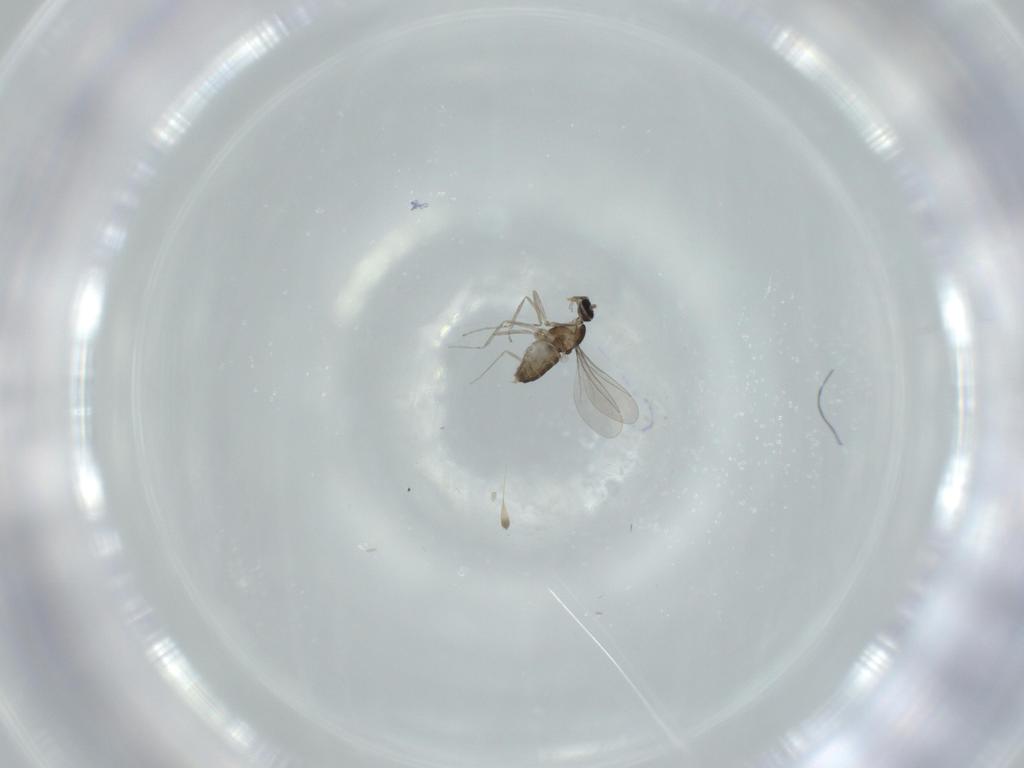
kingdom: Animalia
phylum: Arthropoda
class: Insecta
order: Diptera
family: Cecidomyiidae
